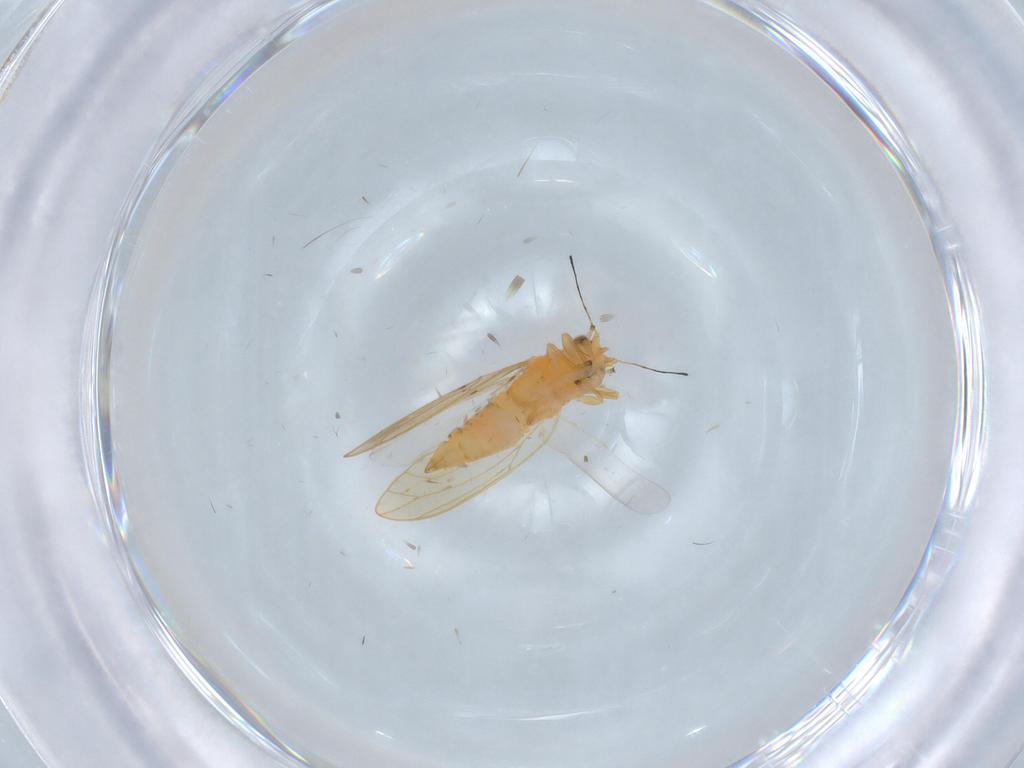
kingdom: Animalia
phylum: Arthropoda
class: Insecta
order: Hemiptera
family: Triozidae
